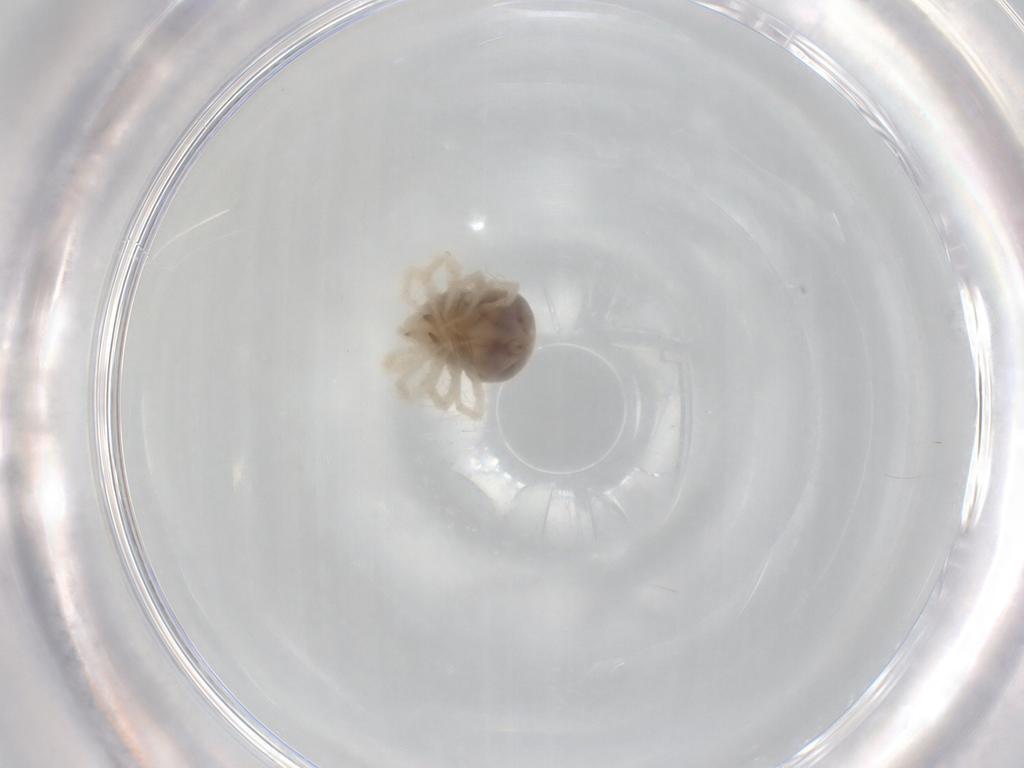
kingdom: Animalia
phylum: Arthropoda
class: Arachnida
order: Trombidiformes
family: Anystidae
